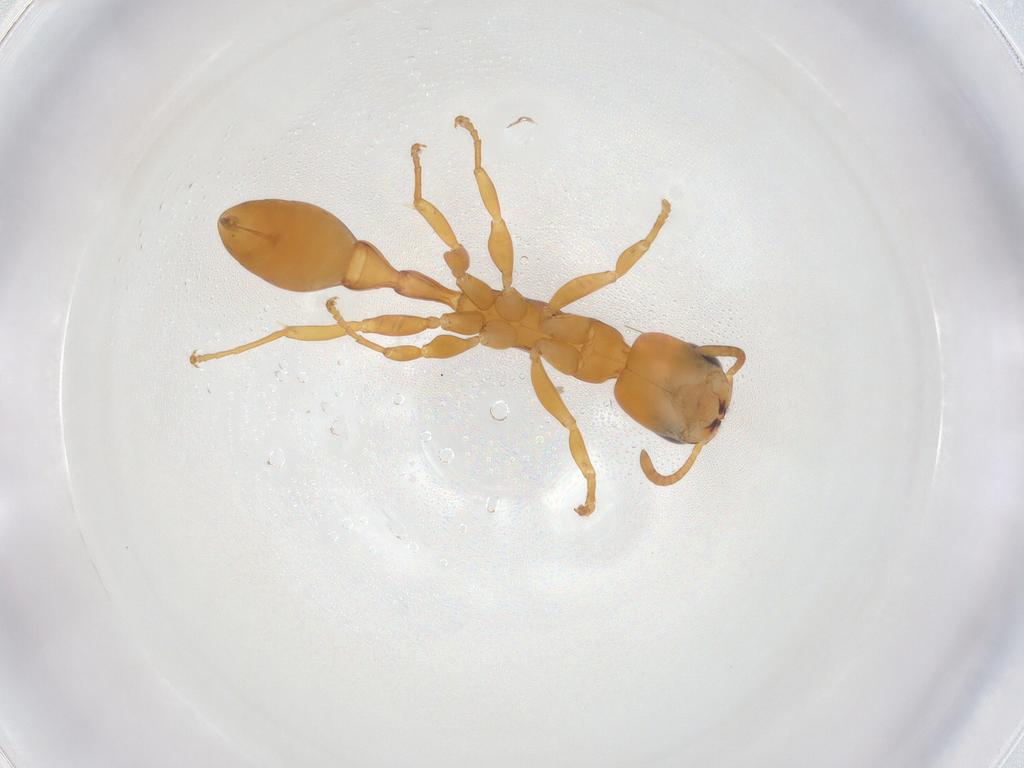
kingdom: Animalia
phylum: Arthropoda
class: Insecta
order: Hymenoptera
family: Formicidae
